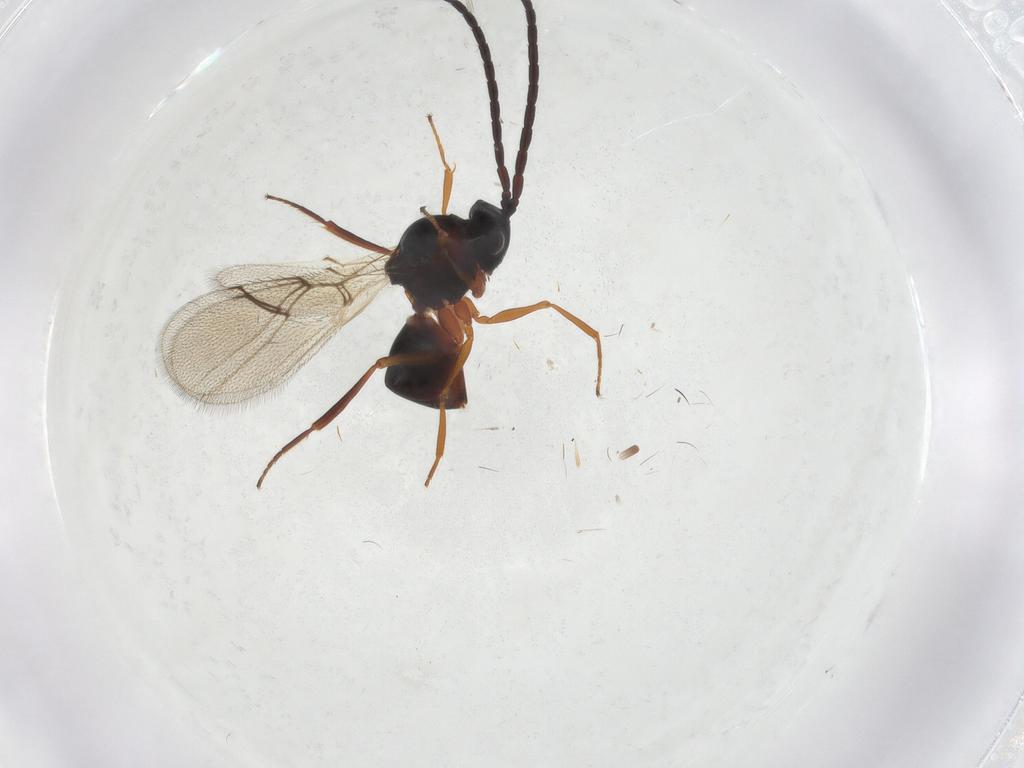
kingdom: Animalia
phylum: Arthropoda
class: Insecta
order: Hymenoptera
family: Figitidae
